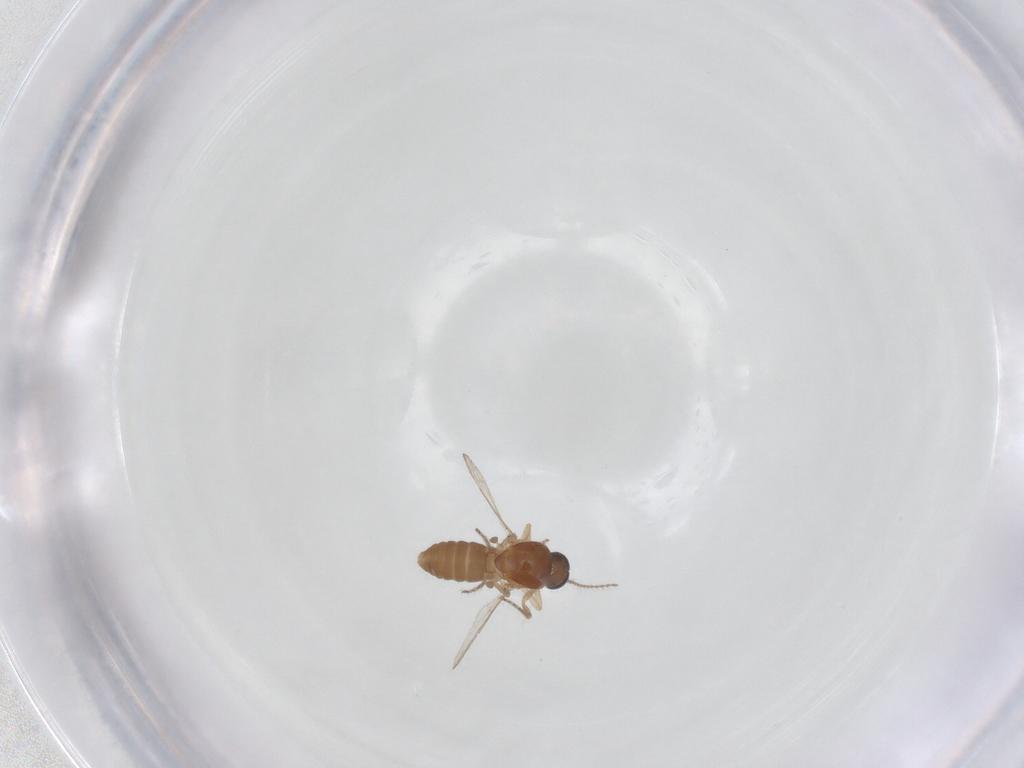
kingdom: Animalia
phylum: Arthropoda
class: Insecta
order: Diptera
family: Ceratopogonidae
